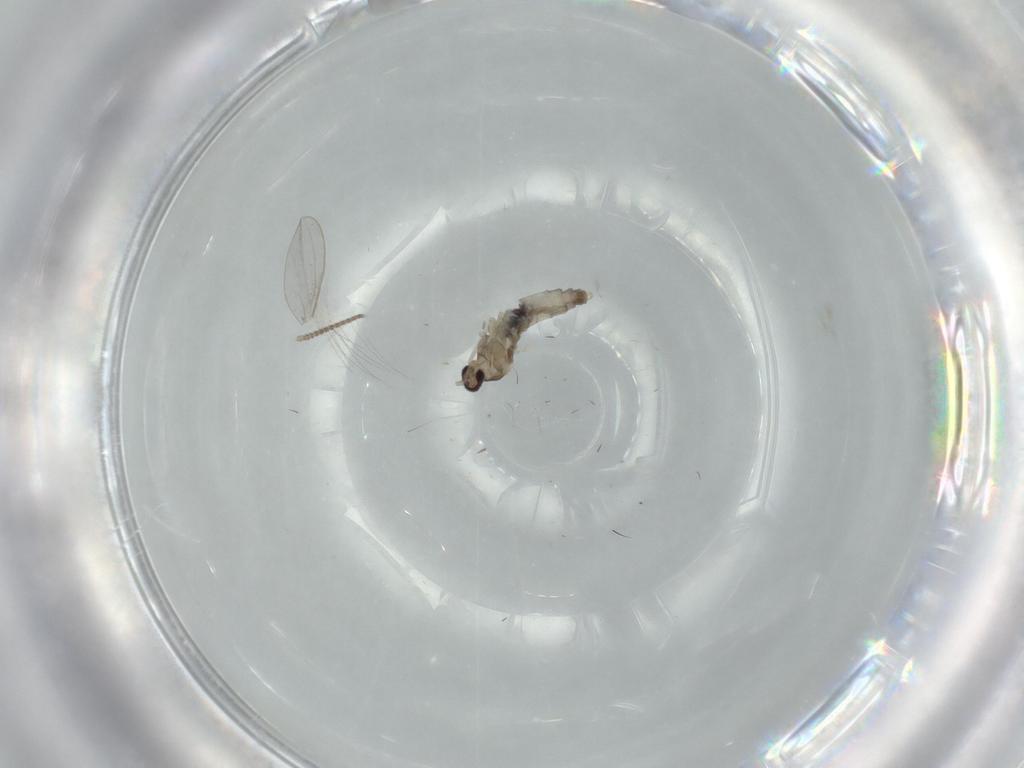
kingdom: Animalia
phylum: Arthropoda
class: Insecta
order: Diptera
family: Cecidomyiidae
